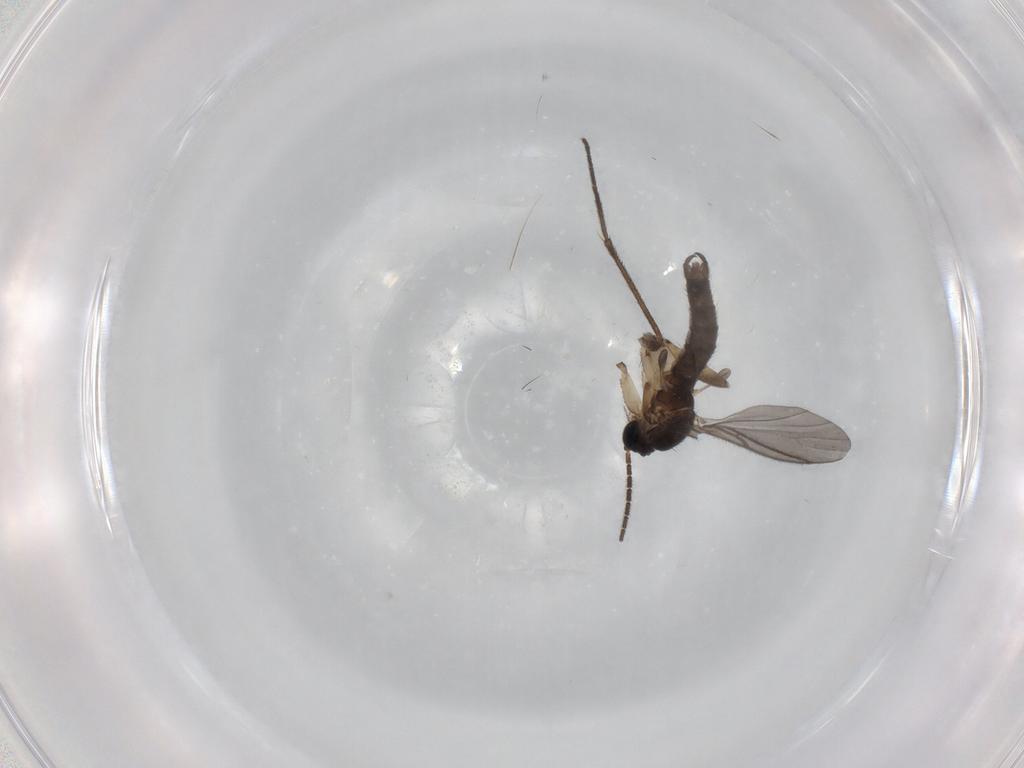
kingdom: Animalia
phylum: Arthropoda
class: Insecta
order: Diptera
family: Sciaridae
